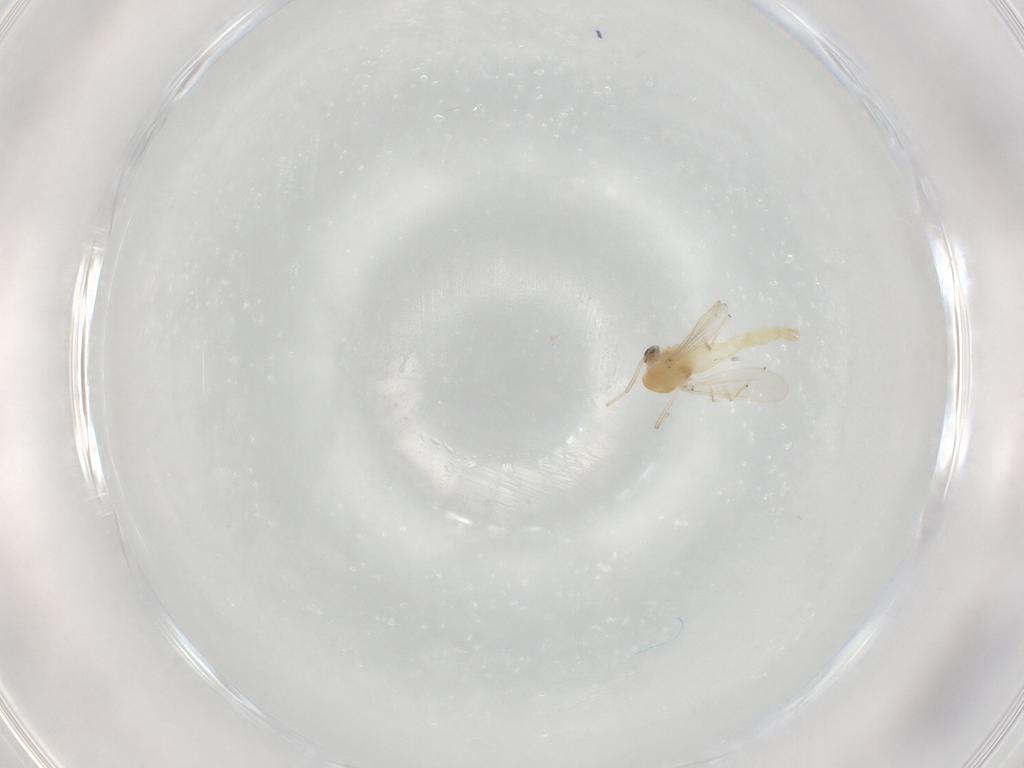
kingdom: Animalia
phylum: Arthropoda
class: Insecta
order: Diptera
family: Chironomidae
